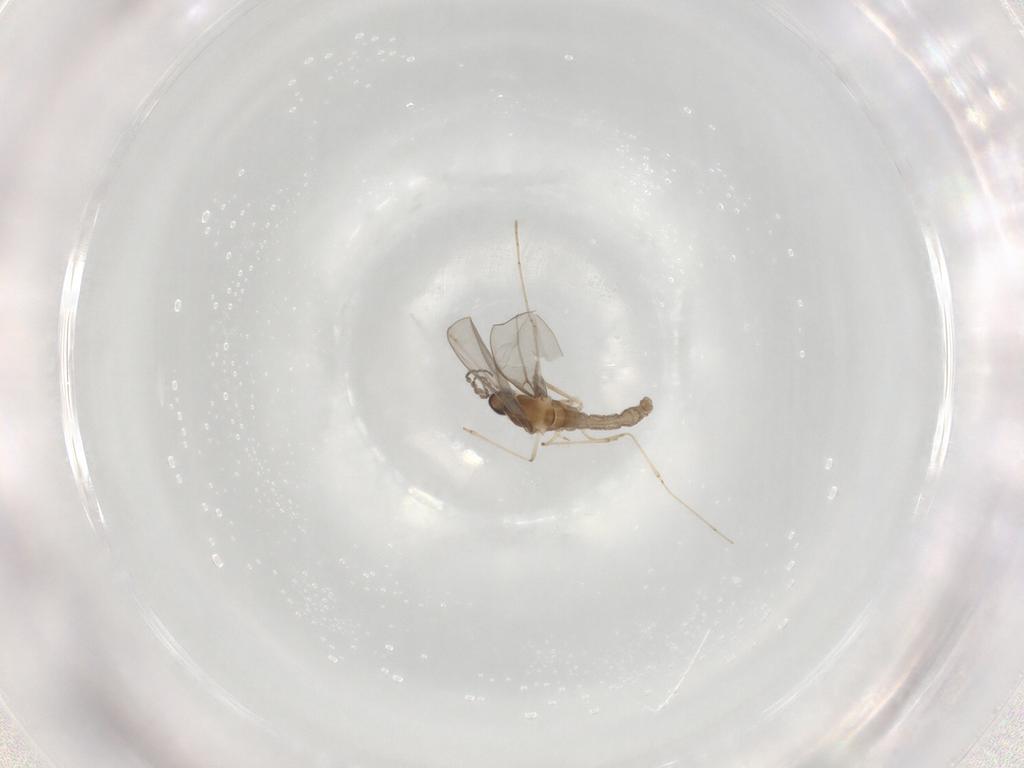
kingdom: Animalia
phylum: Arthropoda
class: Insecta
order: Diptera
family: Cecidomyiidae
